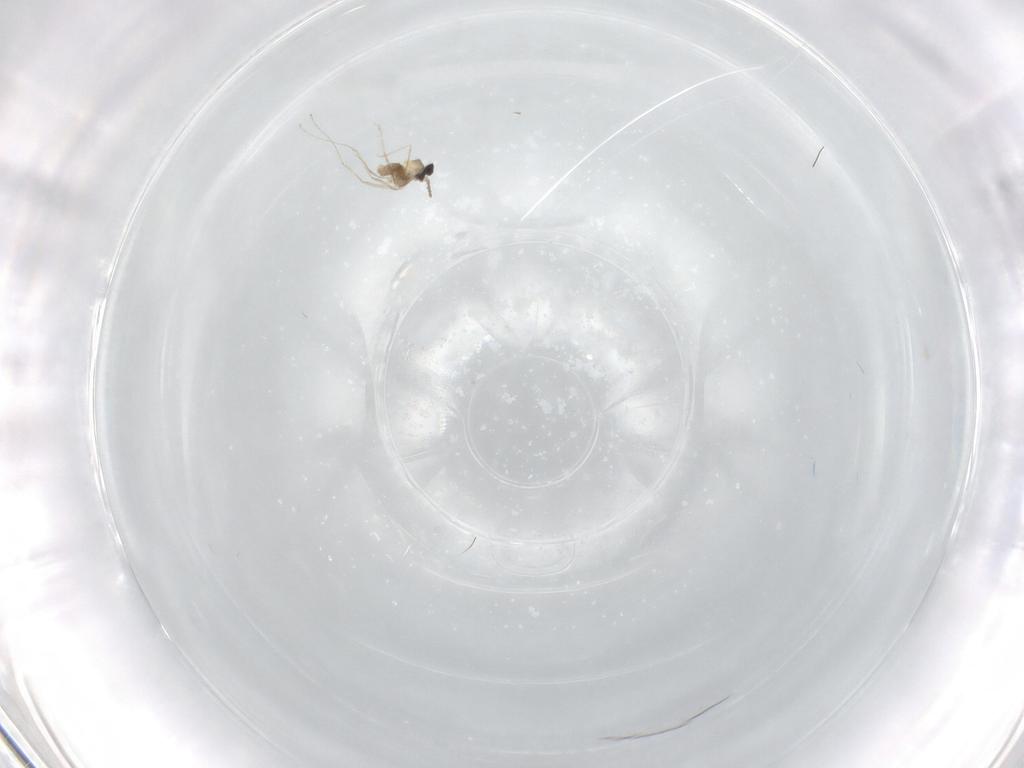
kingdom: Animalia
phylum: Arthropoda
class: Insecta
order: Diptera
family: Cecidomyiidae
